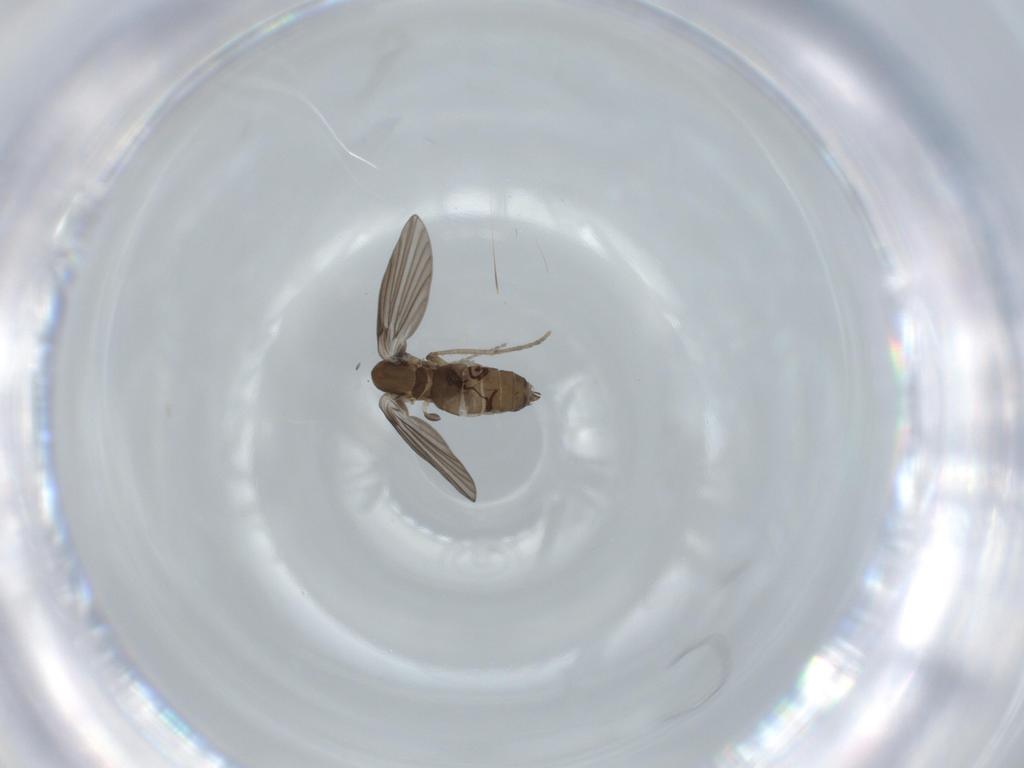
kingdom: Animalia
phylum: Arthropoda
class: Insecta
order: Diptera
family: Psychodidae
